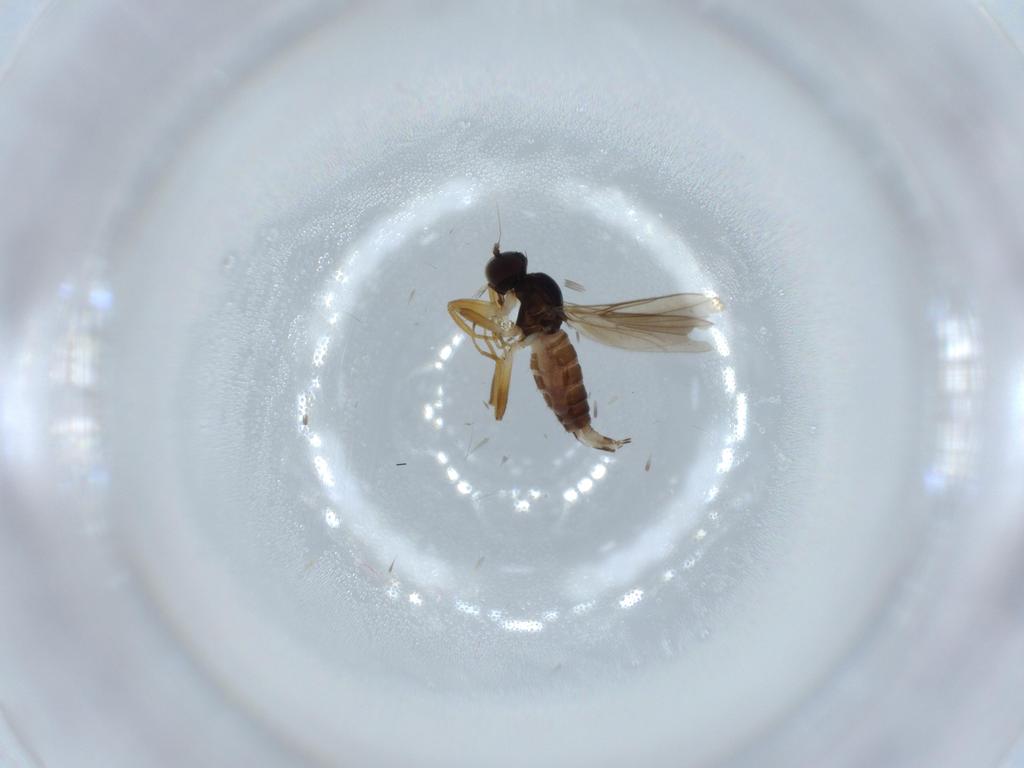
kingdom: Animalia
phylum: Arthropoda
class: Insecta
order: Diptera
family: Hybotidae
